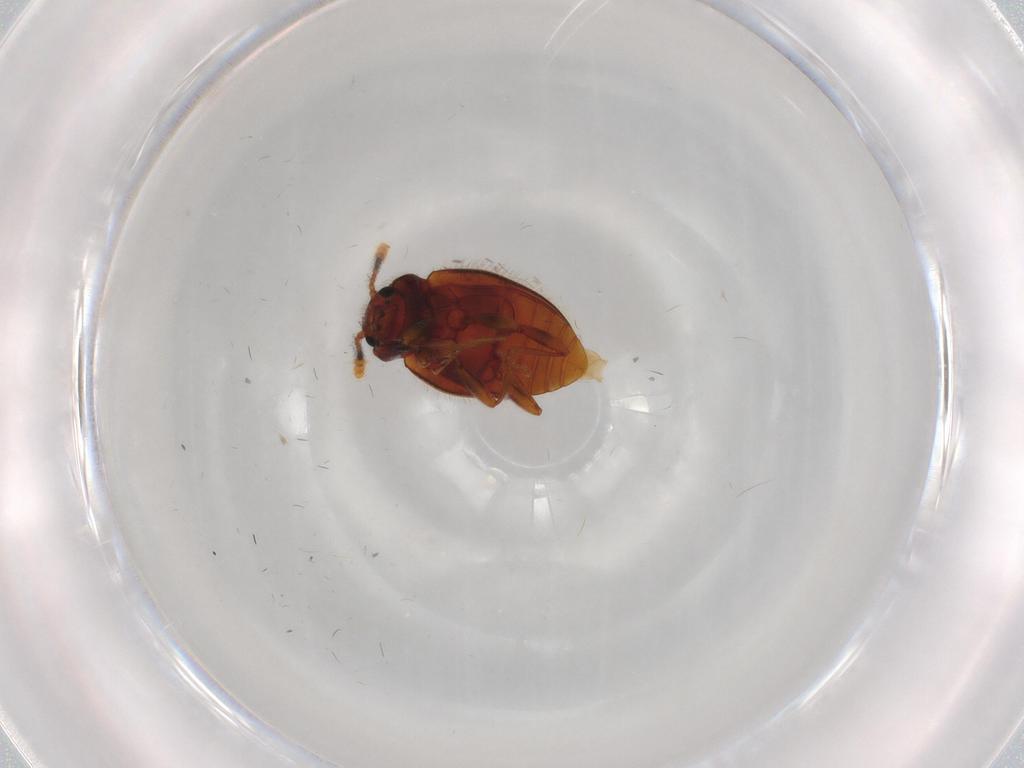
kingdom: Animalia
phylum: Arthropoda
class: Insecta
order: Coleoptera
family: Erotylidae
